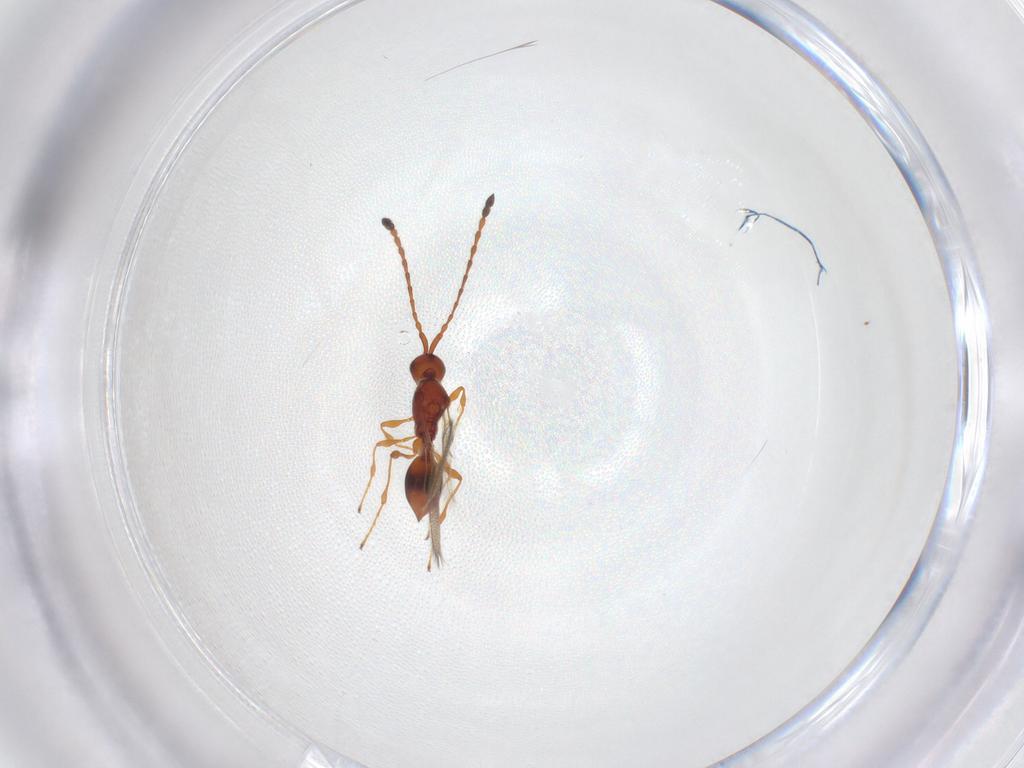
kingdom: Animalia
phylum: Arthropoda
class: Insecta
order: Hymenoptera
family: Diapriidae
